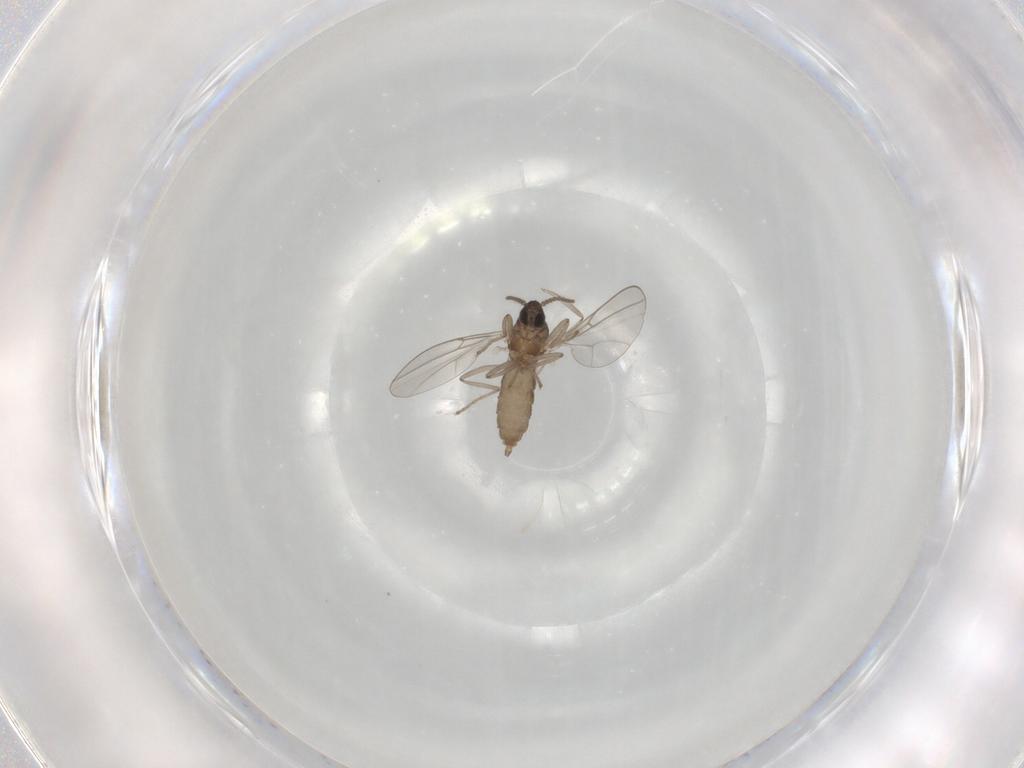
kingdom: Animalia
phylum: Arthropoda
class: Insecta
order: Diptera
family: Cecidomyiidae
